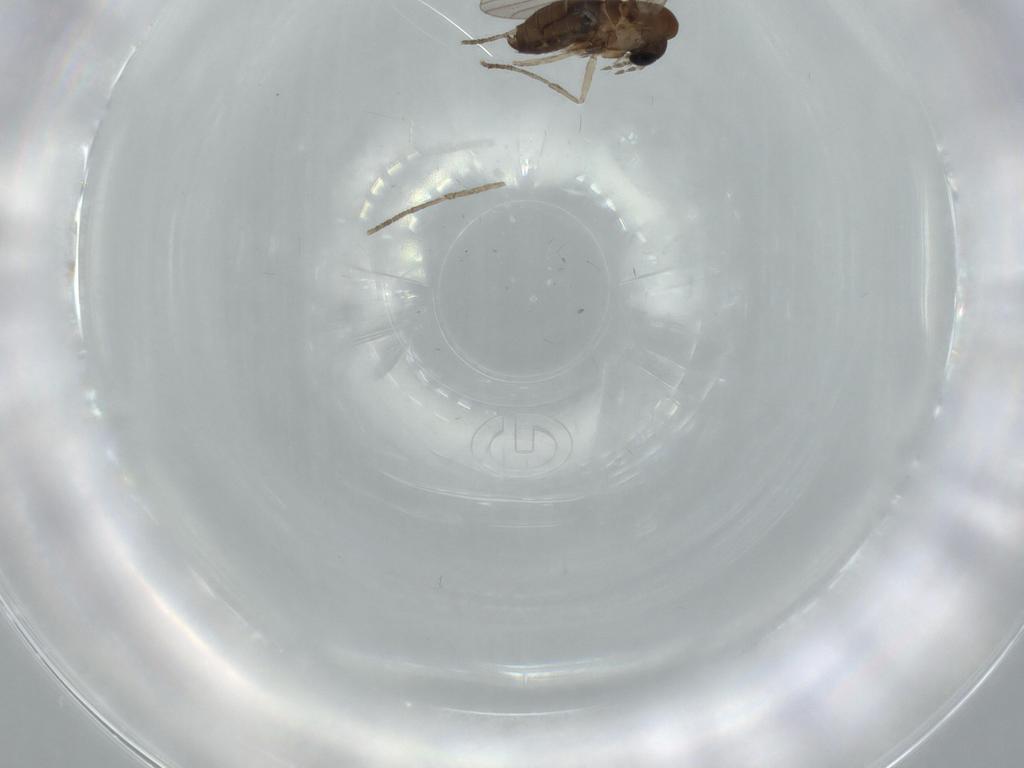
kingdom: Animalia
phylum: Arthropoda
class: Insecta
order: Diptera
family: Psychodidae
